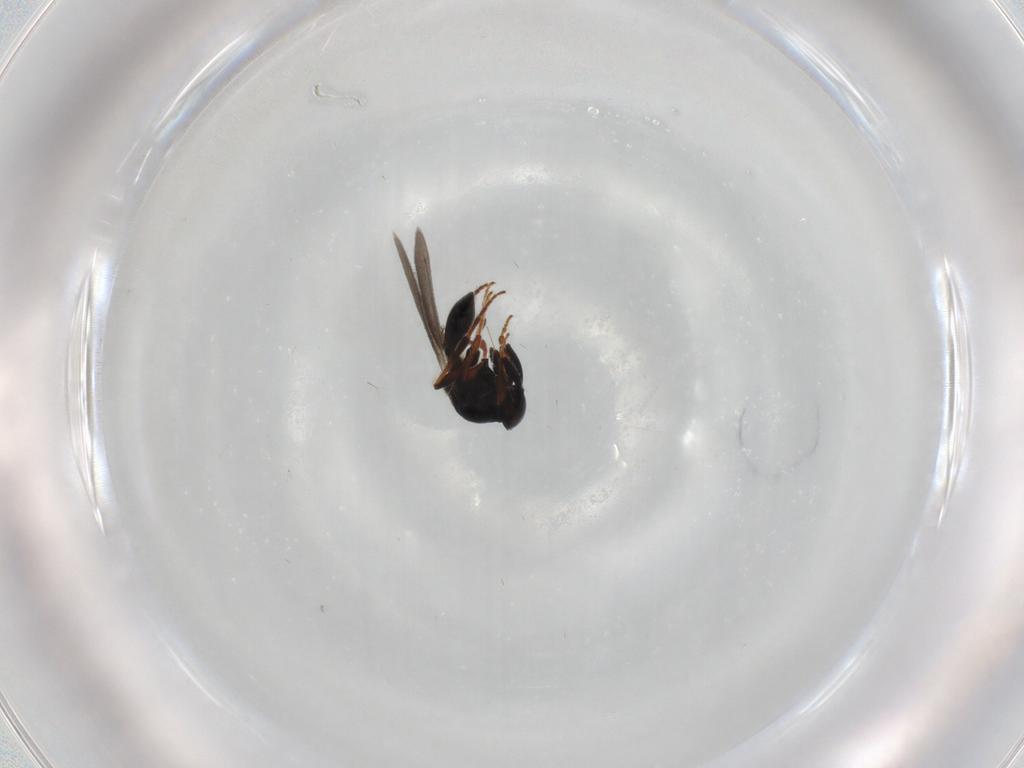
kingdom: Animalia
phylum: Arthropoda
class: Insecta
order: Hymenoptera
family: Platygastridae
